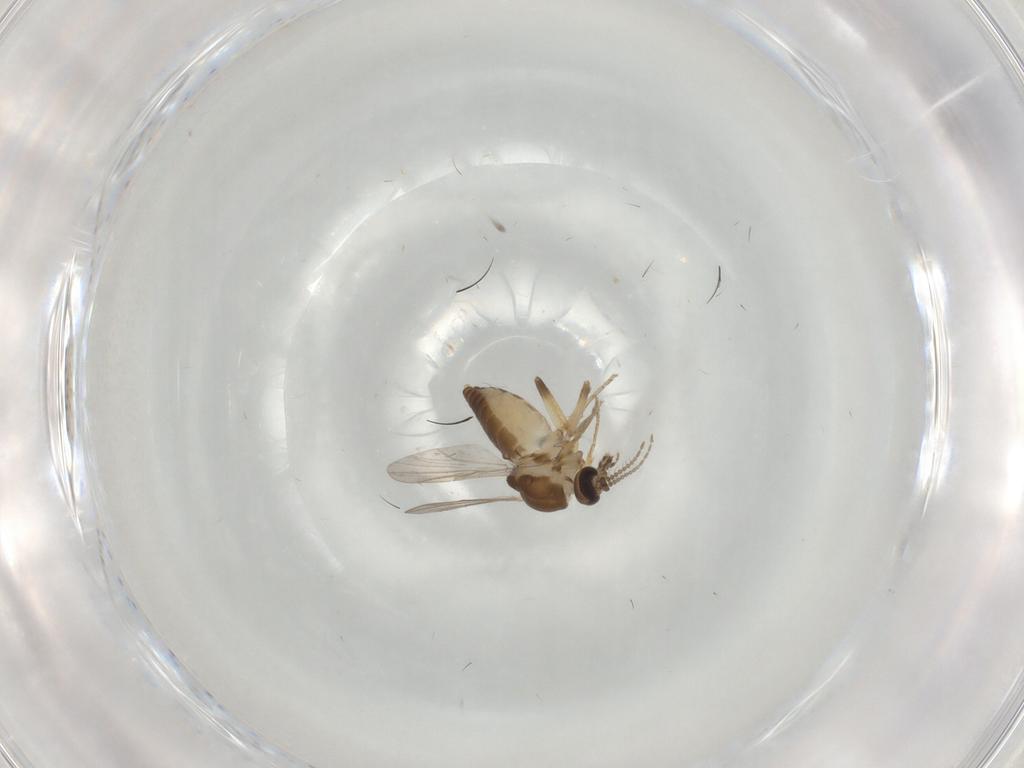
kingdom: Animalia
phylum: Arthropoda
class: Insecta
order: Diptera
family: Ceratopogonidae
